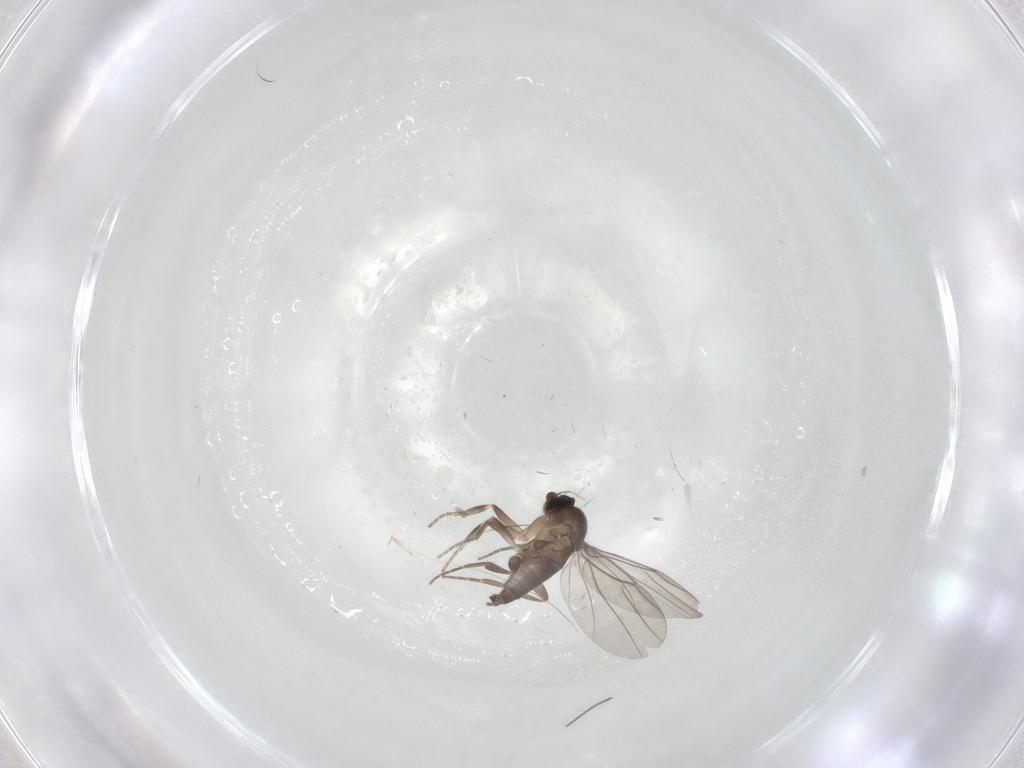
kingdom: Animalia
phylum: Arthropoda
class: Insecta
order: Diptera
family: Phoridae
